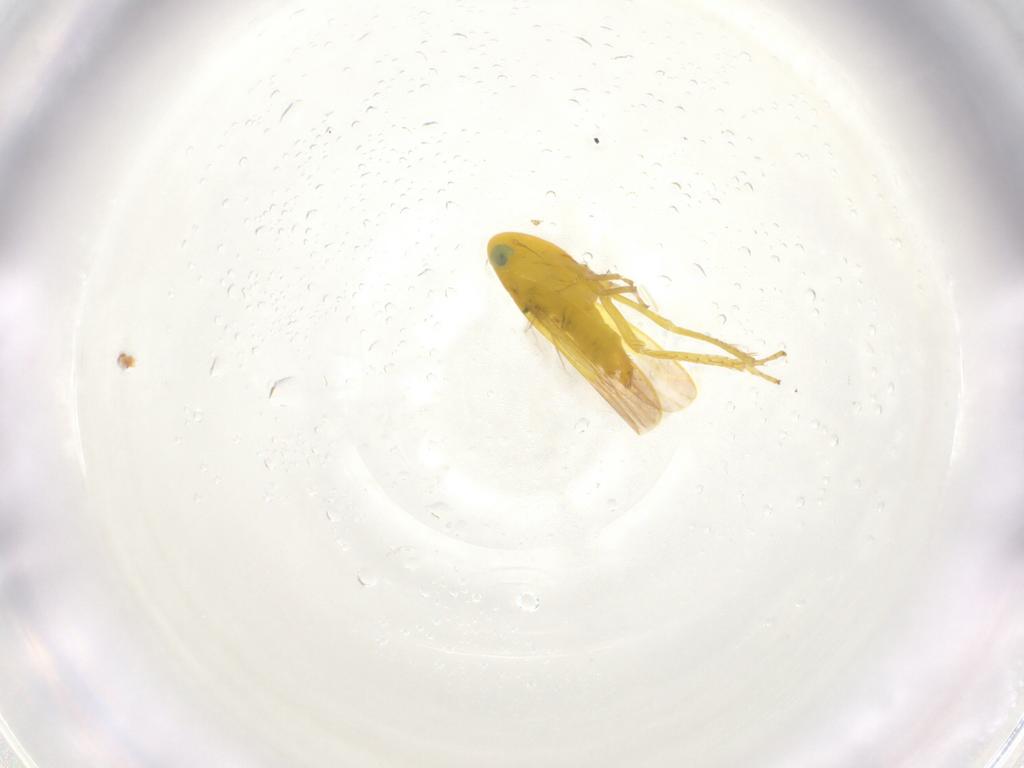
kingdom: Animalia
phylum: Arthropoda
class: Insecta
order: Hemiptera
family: Cicadellidae
